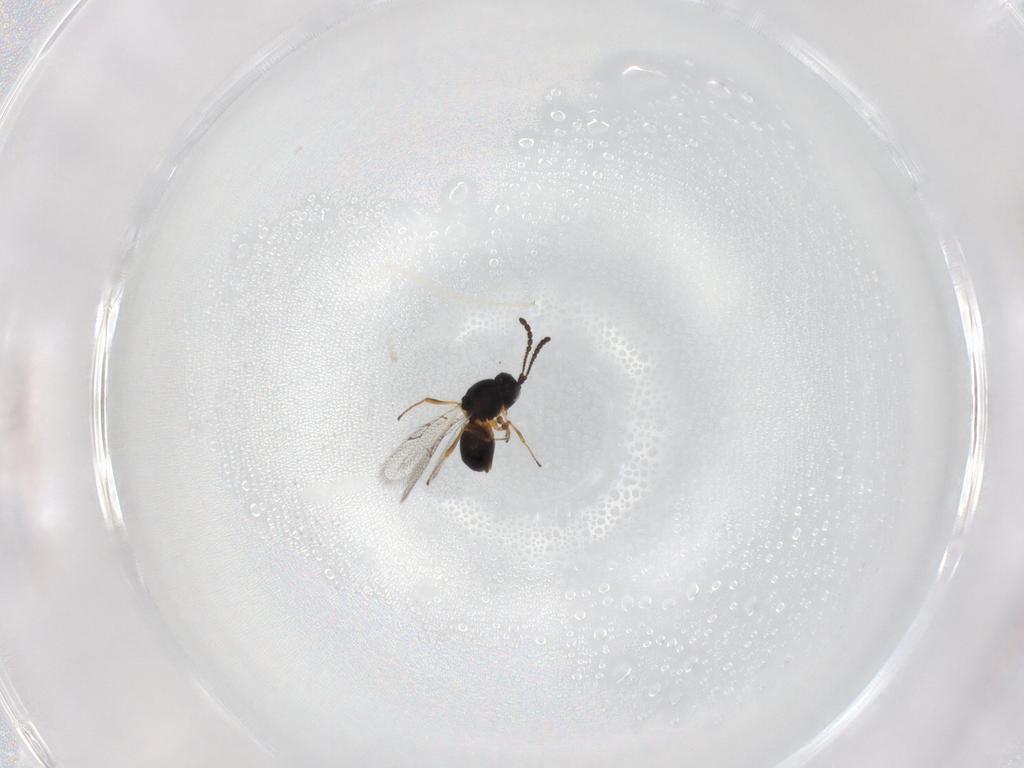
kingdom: Animalia
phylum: Arthropoda
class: Insecta
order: Hymenoptera
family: Figitidae
